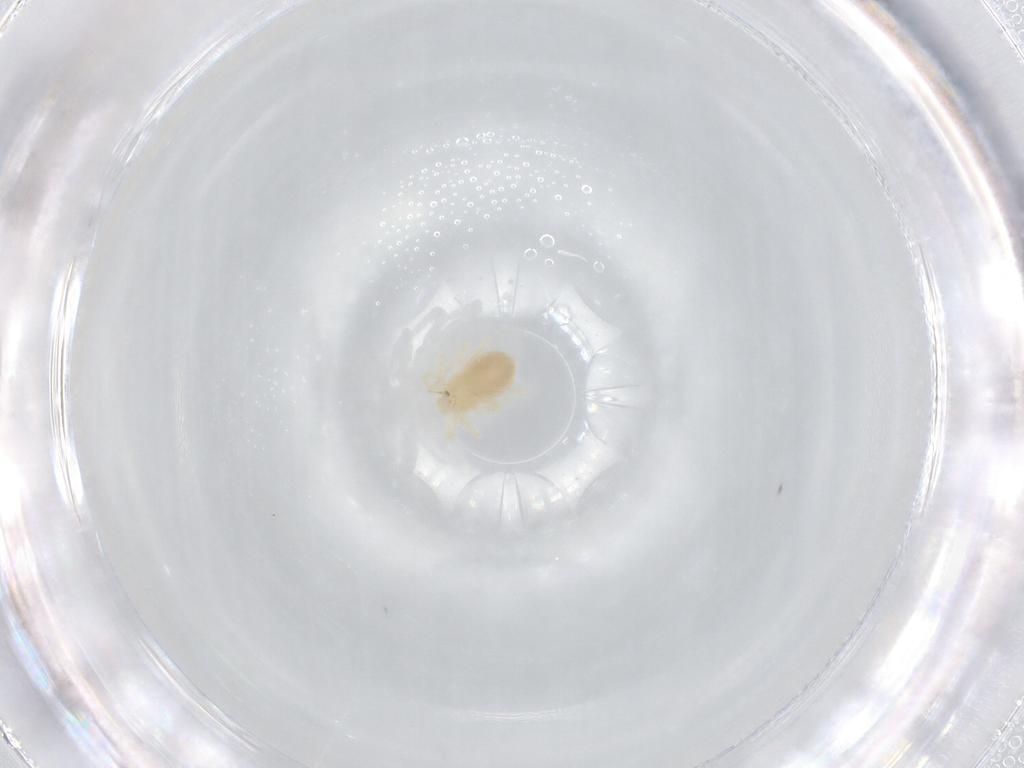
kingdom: Animalia
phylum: Arthropoda
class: Arachnida
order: Trombidiformes
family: Anystidae
